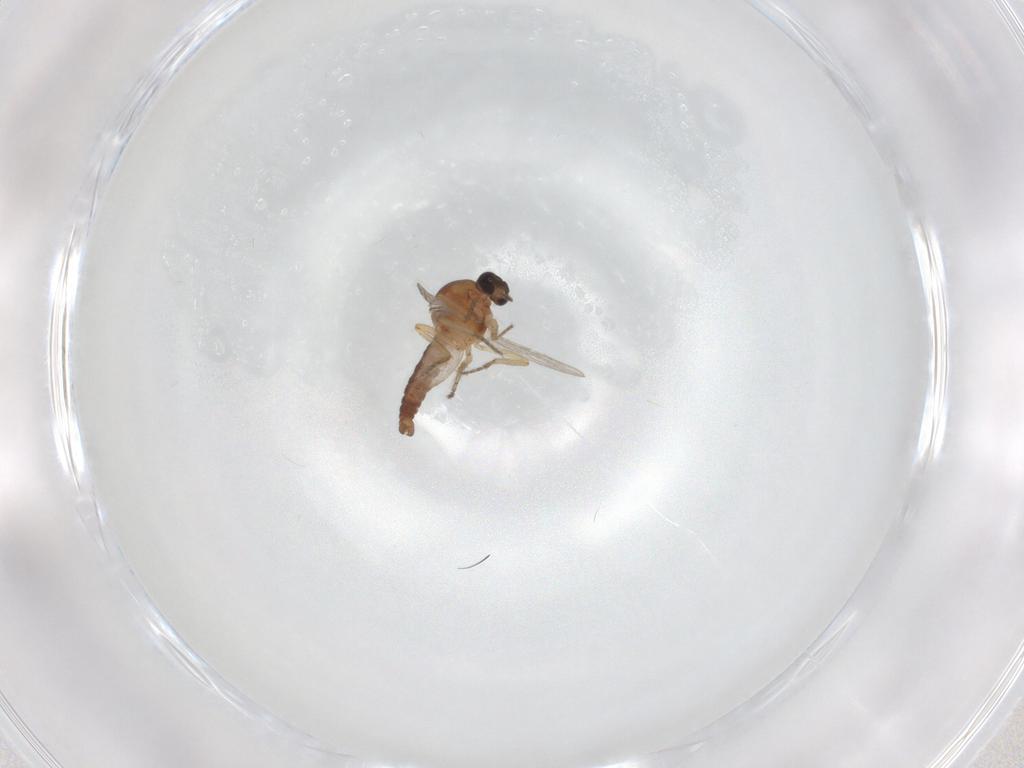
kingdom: Animalia
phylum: Arthropoda
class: Insecta
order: Diptera
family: Ceratopogonidae
